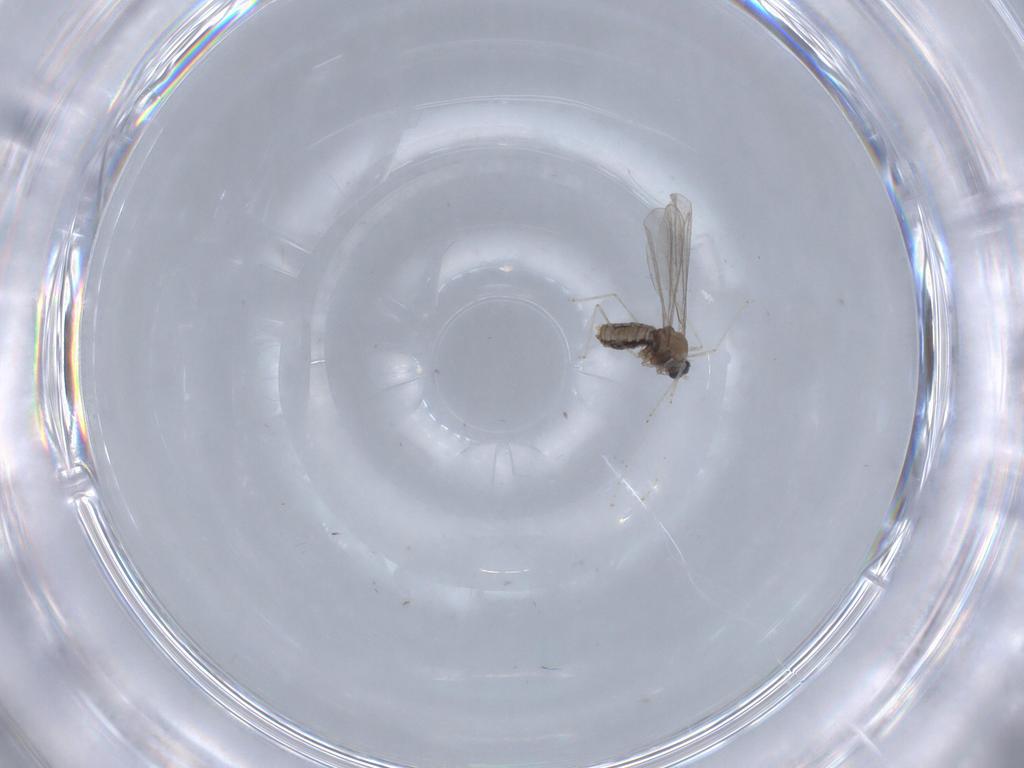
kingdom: Animalia
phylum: Arthropoda
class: Insecta
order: Diptera
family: Cecidomyiidae
